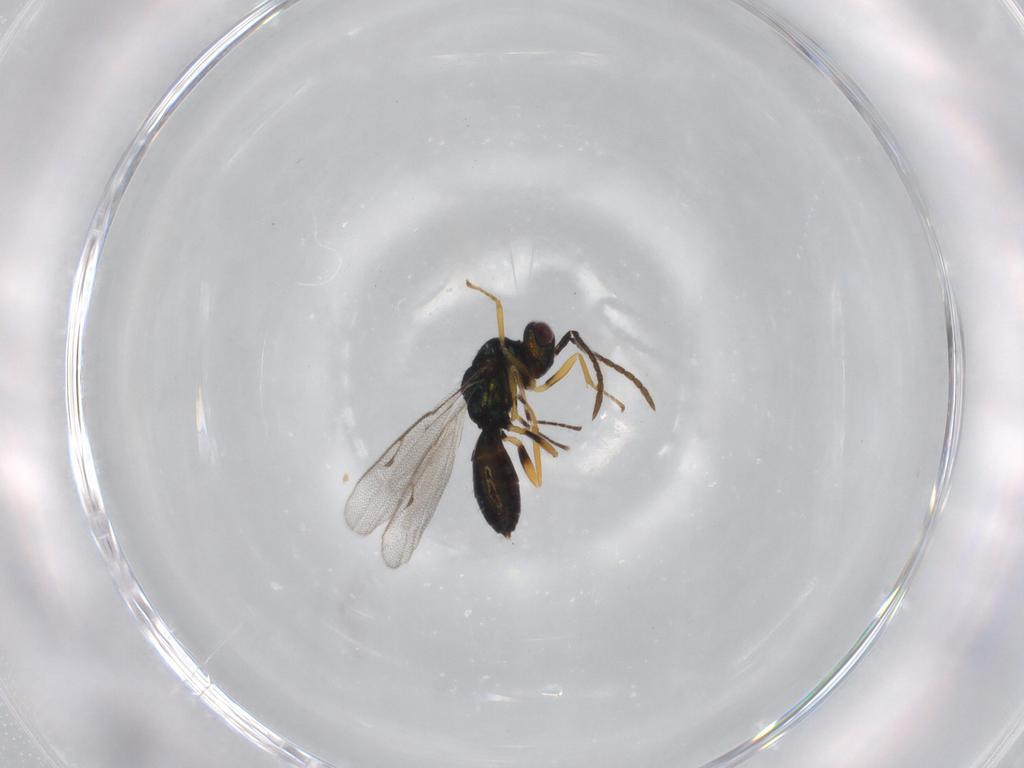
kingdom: Animalia
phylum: Arthropoda
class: Insecta
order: Hymenoptera
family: Pteromalidae
